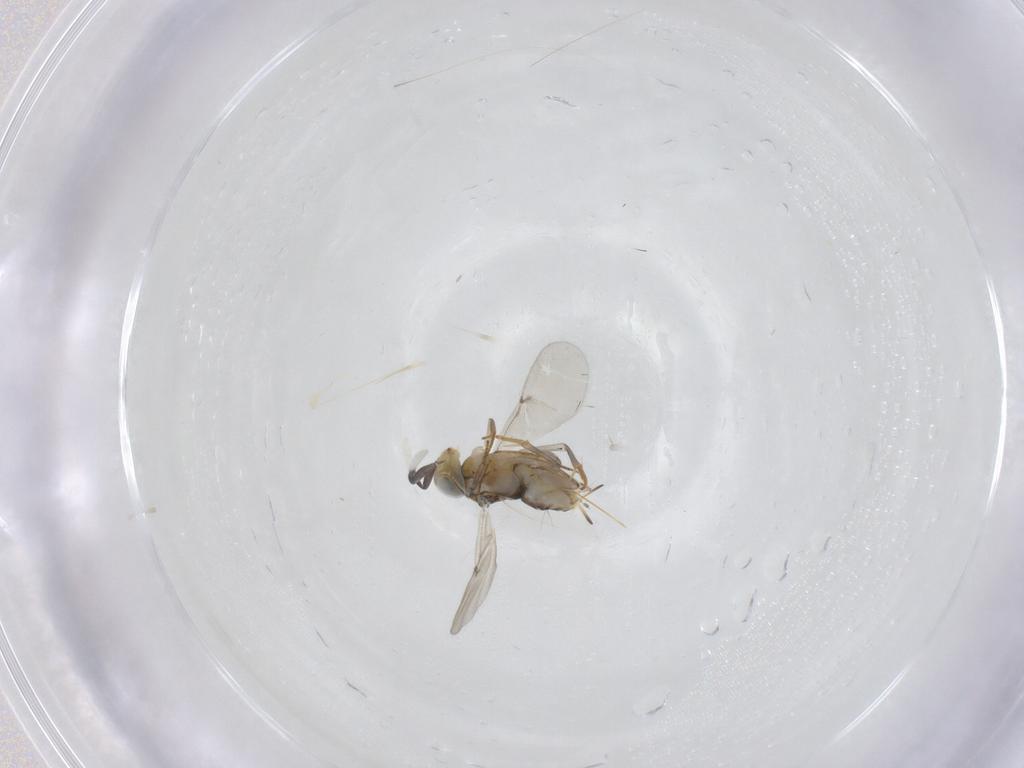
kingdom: Animalia
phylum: Arthropoda
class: Insecta
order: Hymenoptera
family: Encyrtidae
